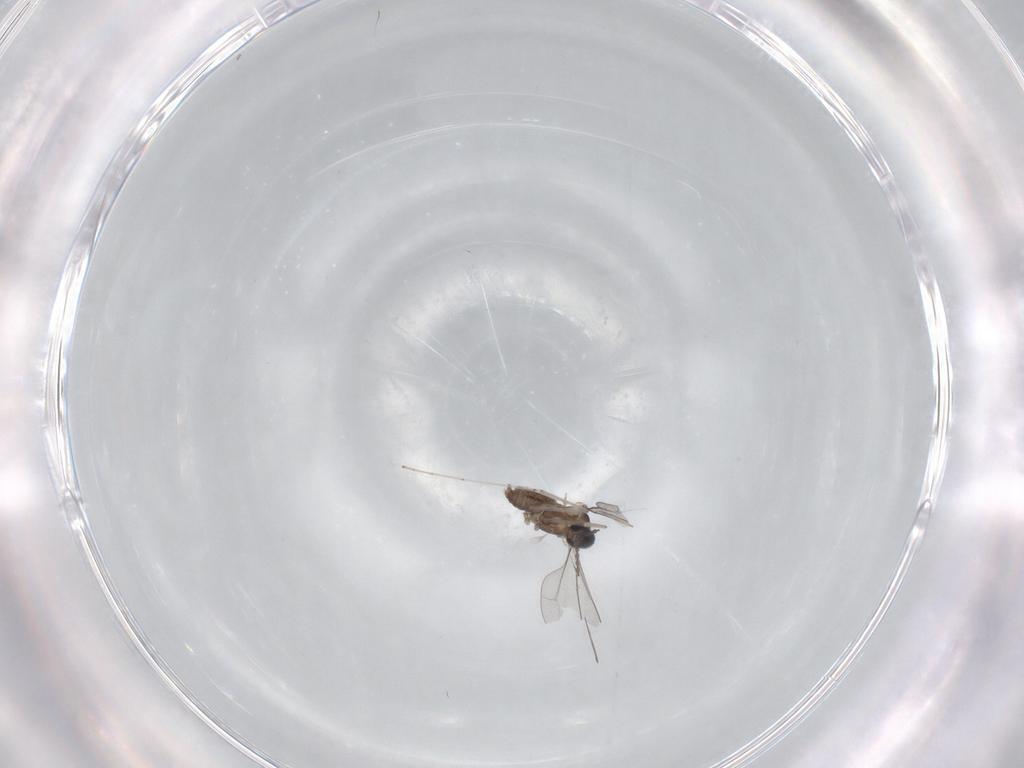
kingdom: Animalia
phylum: Arthropoda
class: Insecta
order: Diptera
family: Cecidomyiidae
